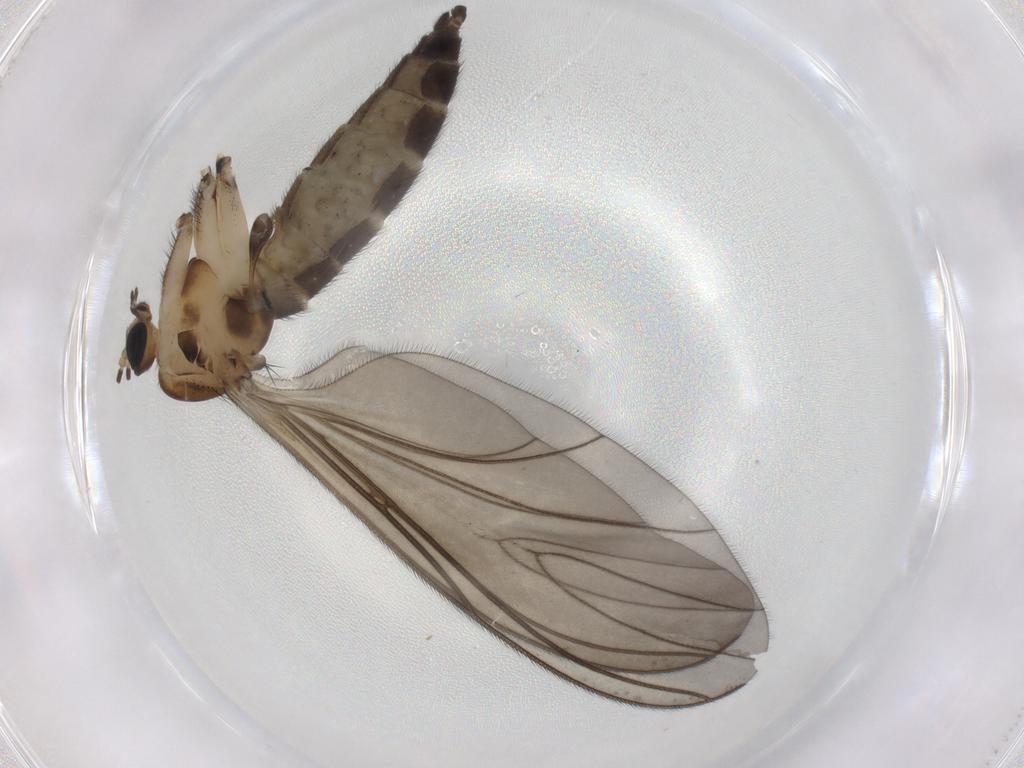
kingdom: Animalia
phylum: Arthropoda
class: Insecta
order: Diptera
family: Sciaridae
